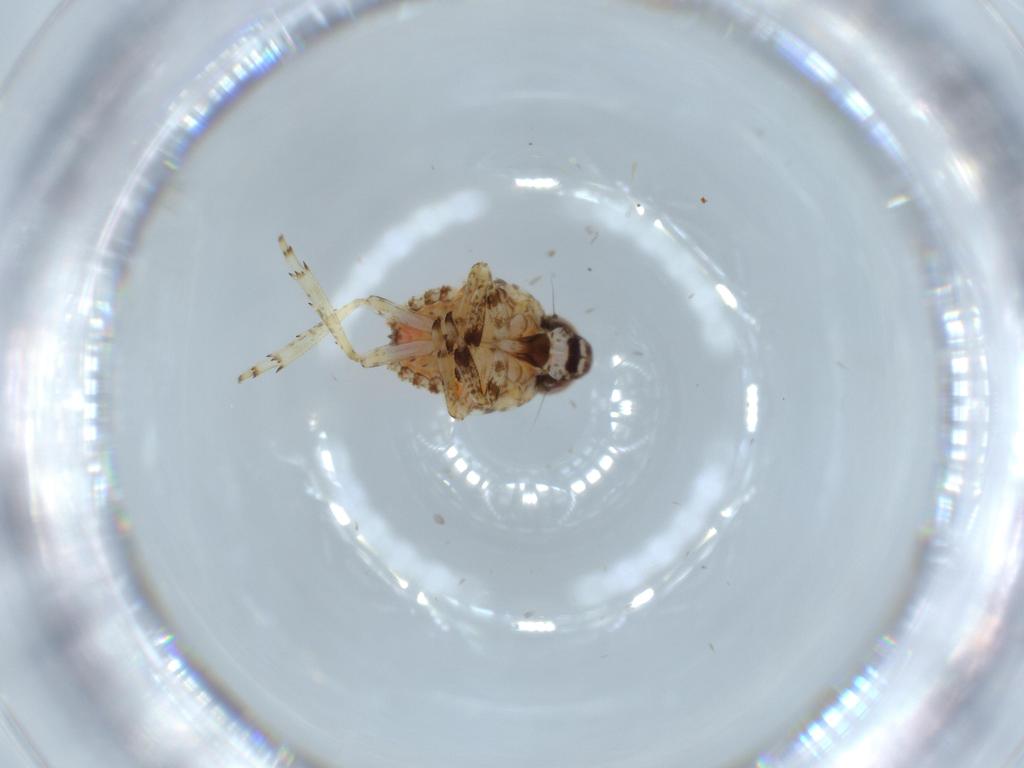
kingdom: Animalia
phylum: Arthropoda
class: Insecta
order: Hemiptera
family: Issidae
